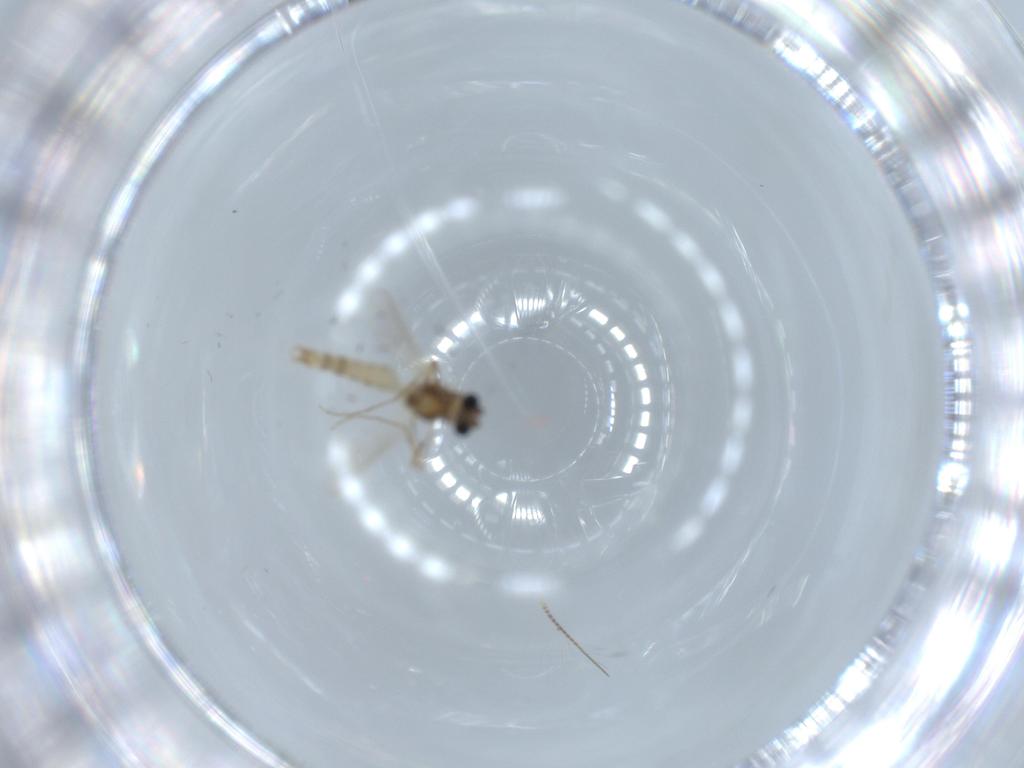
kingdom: Animalia
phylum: Arthropoda
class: Insecta
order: Diptera
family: Chironomidae
